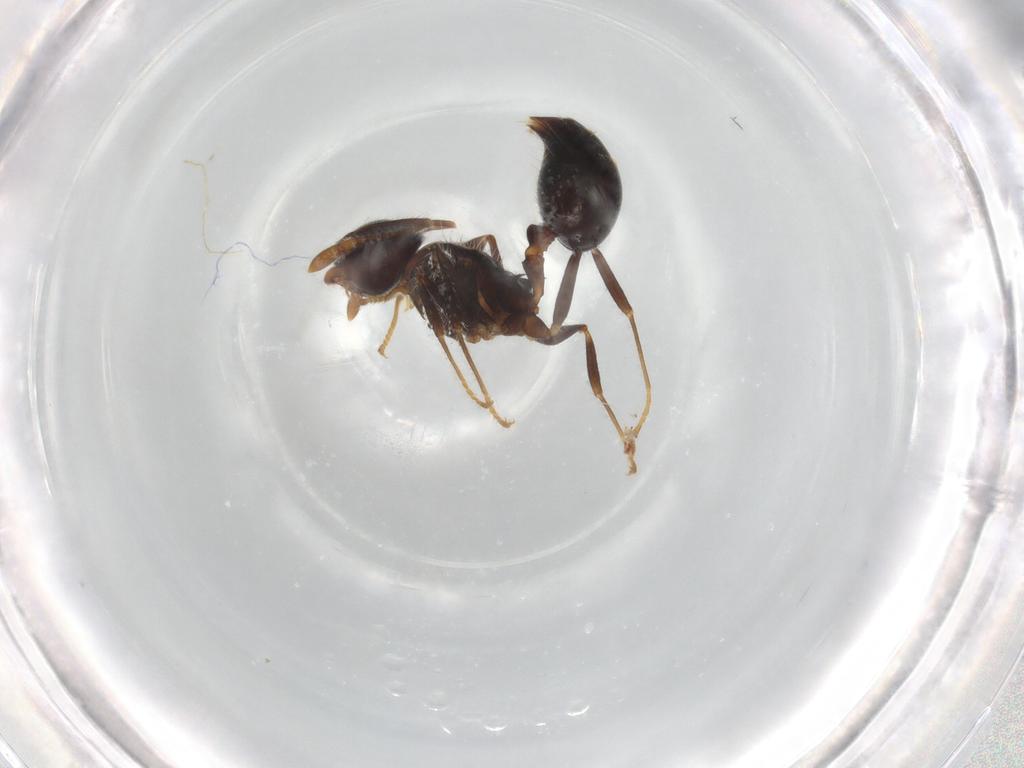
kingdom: Animalia
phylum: Arthropoda
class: Insecta
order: Hymenoptera
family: Formicidae
